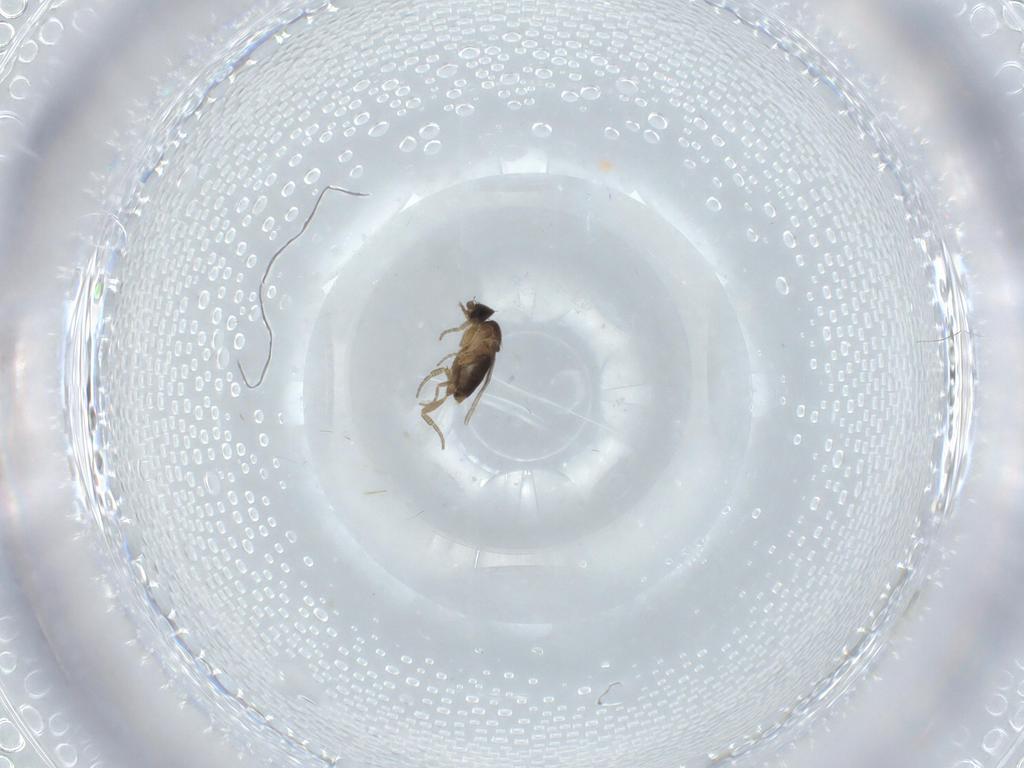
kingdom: Animalia
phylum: Arthropoda
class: Insecta
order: Diptera
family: Phoridae
